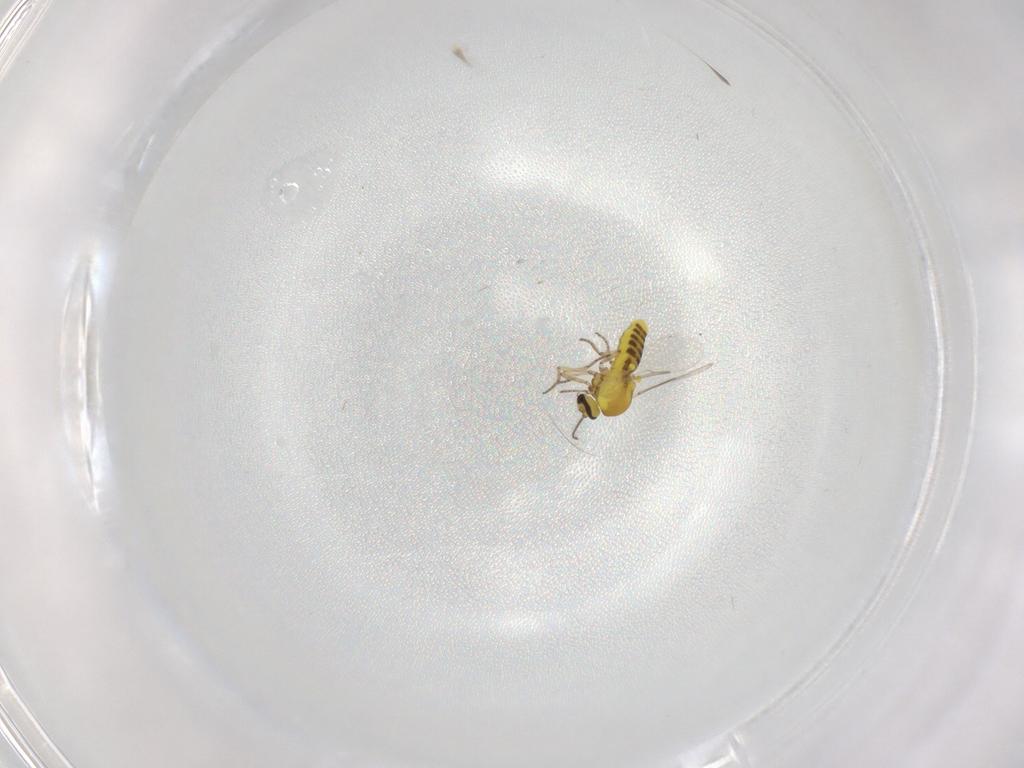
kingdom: Animalia
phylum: Arthropoda
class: Insecta
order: Diptera
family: Ceratopogonidae
